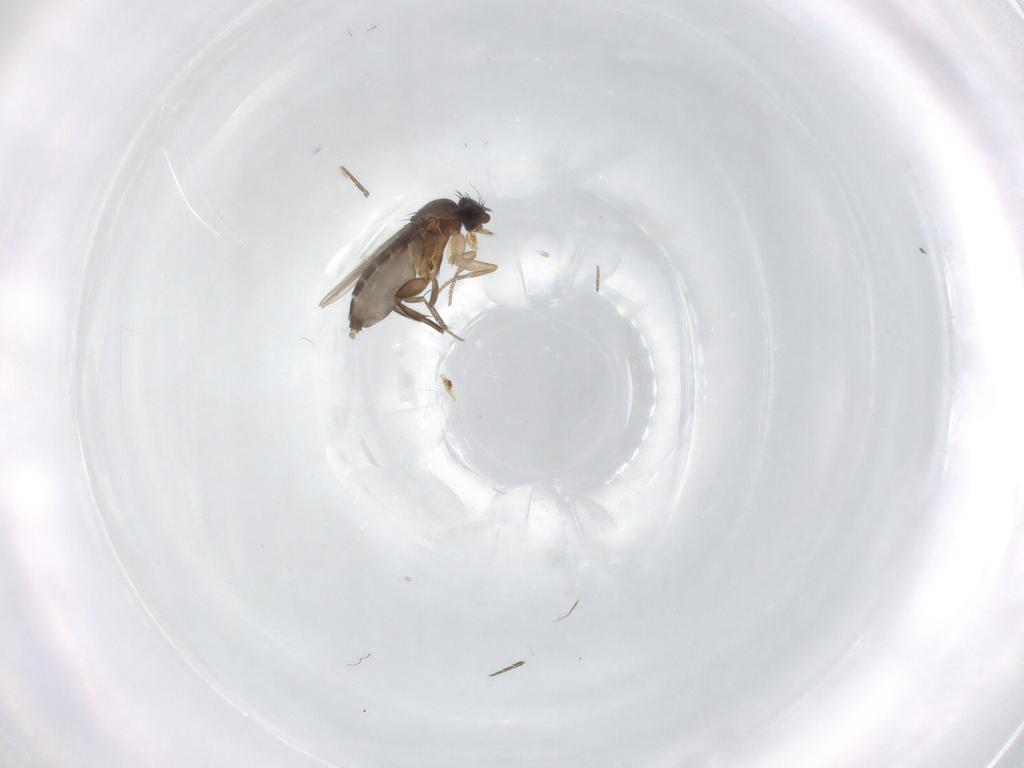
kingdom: Animalia
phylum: Arthropoda
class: Insecta
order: Diptera
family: Phoridae
